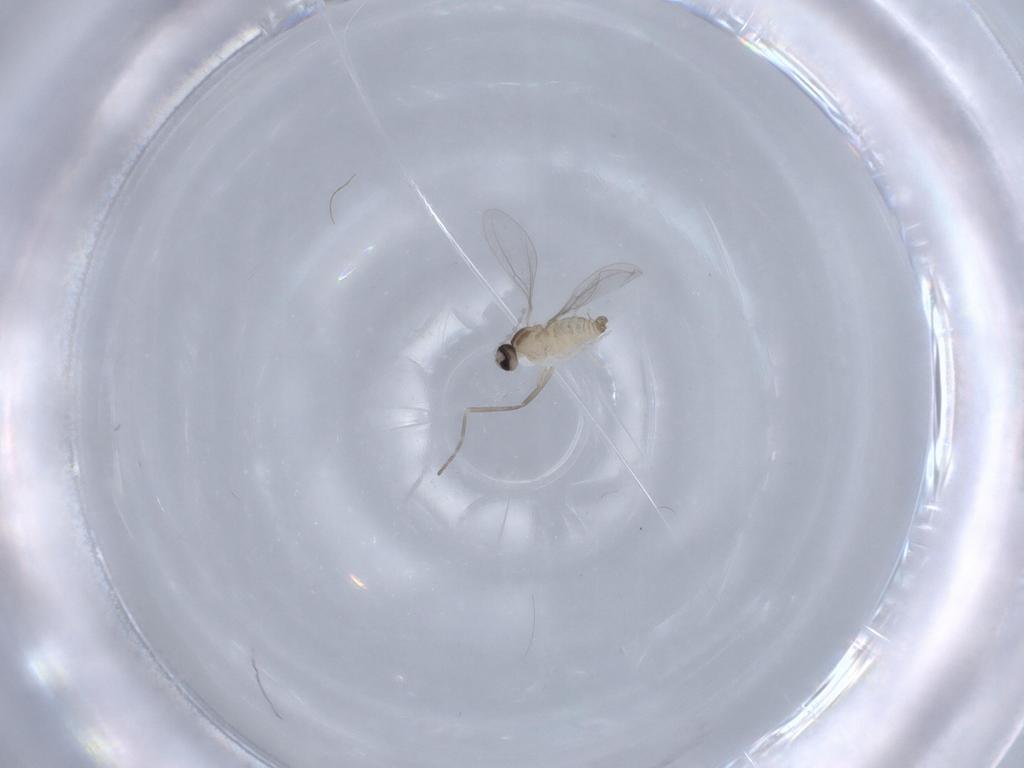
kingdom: Animalia
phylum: Arthropoda
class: Insecta
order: Diptera
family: Cecidomyiidae
